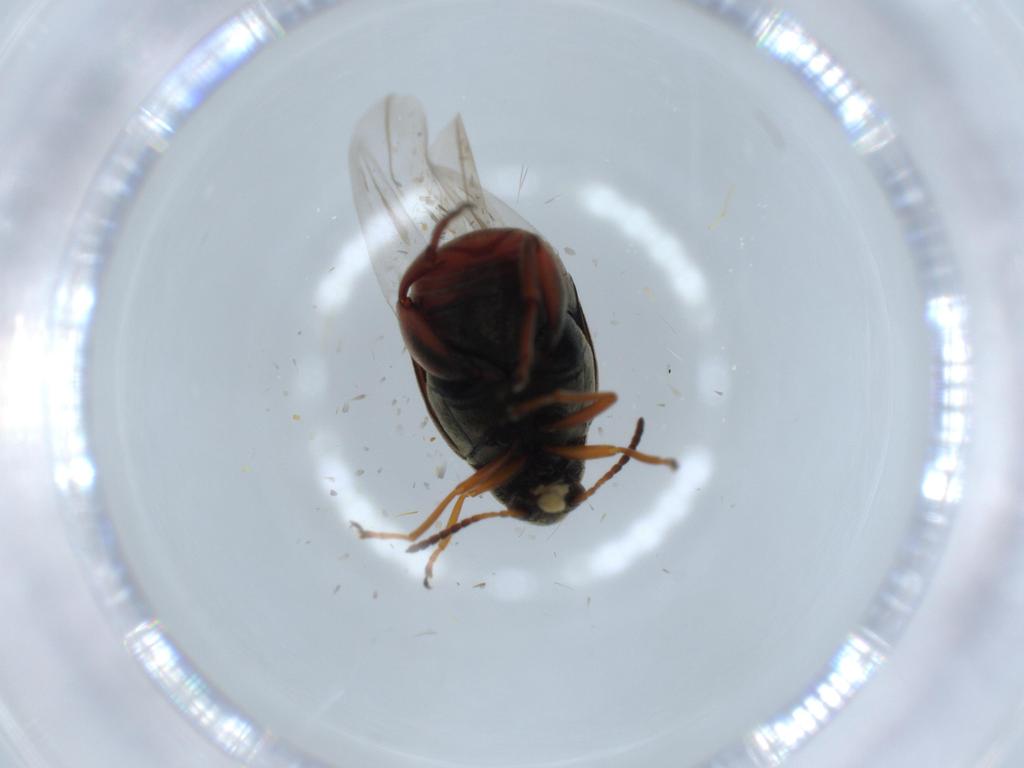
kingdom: Animalia
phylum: Arthropoda
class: Insecta
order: Coleoptera
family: Chrysomelidae
